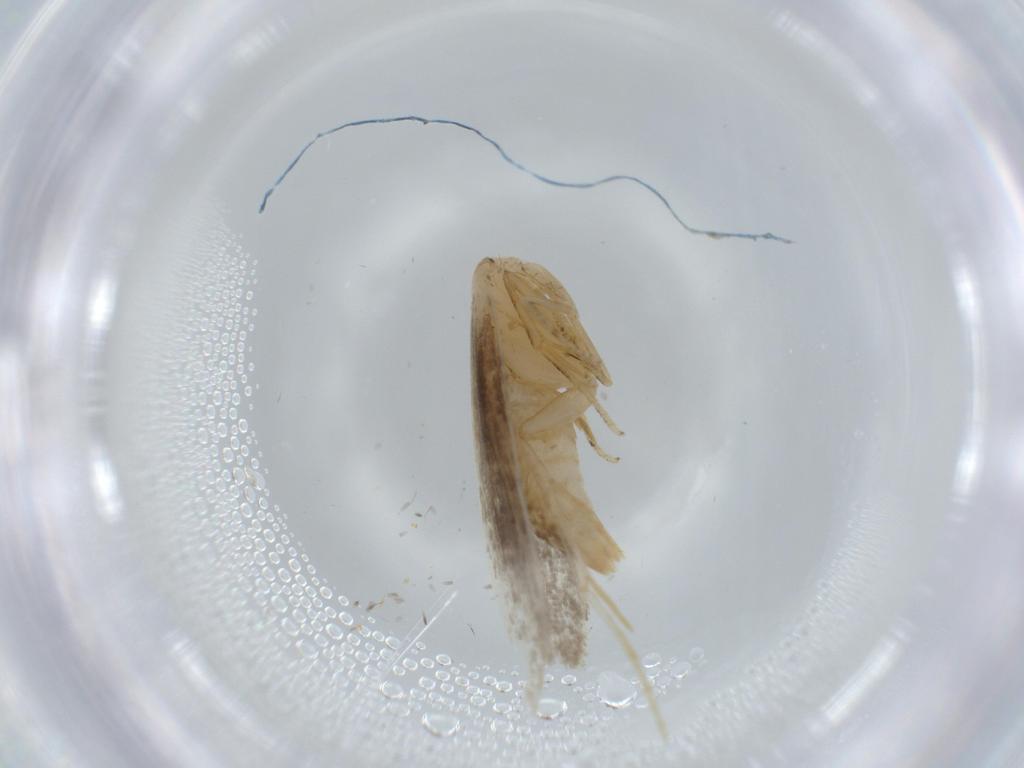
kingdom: Animalia
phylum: Arthropoda
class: Insecta
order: Lepidoptera
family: Tineidae
